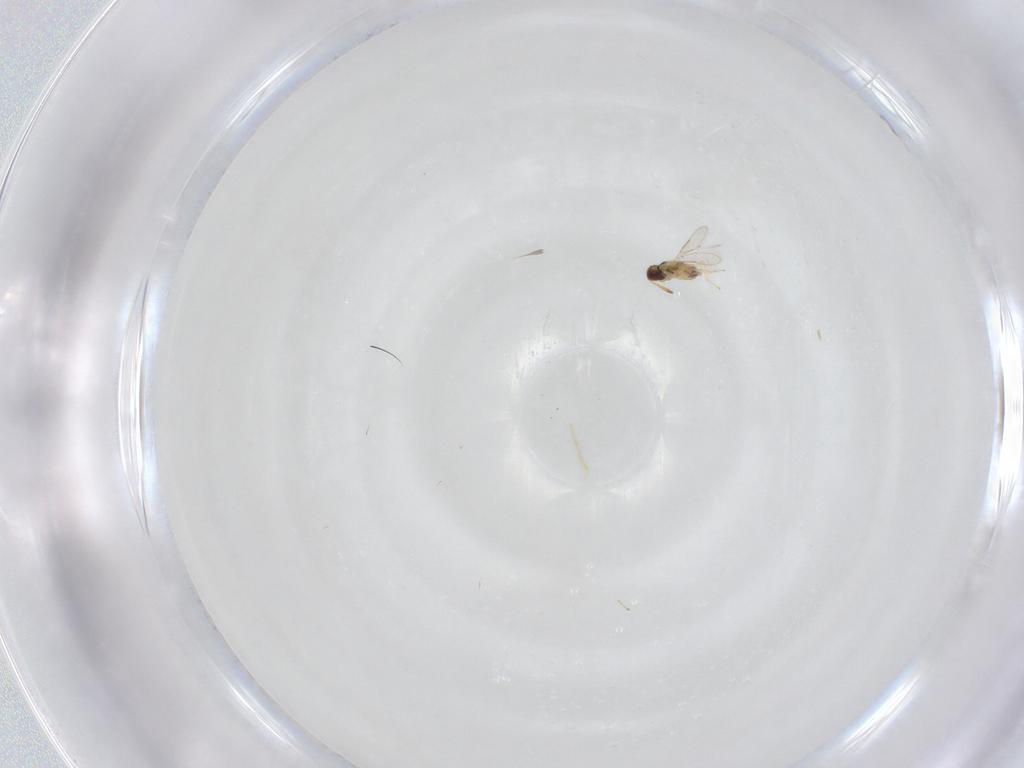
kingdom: Animalia
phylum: Arthropoda
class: Insecta
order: Hymenoptera
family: Aphelinidae
